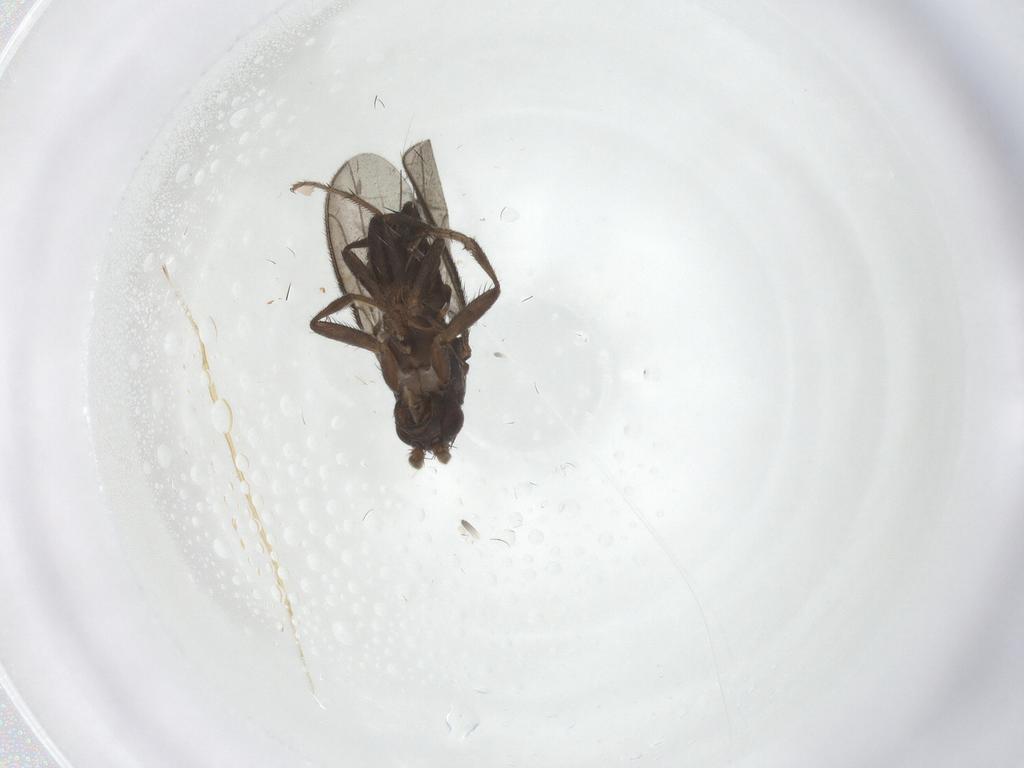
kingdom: Animalia
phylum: Arthropoda
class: Insecta
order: Diptera
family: Sphaeroceridae
